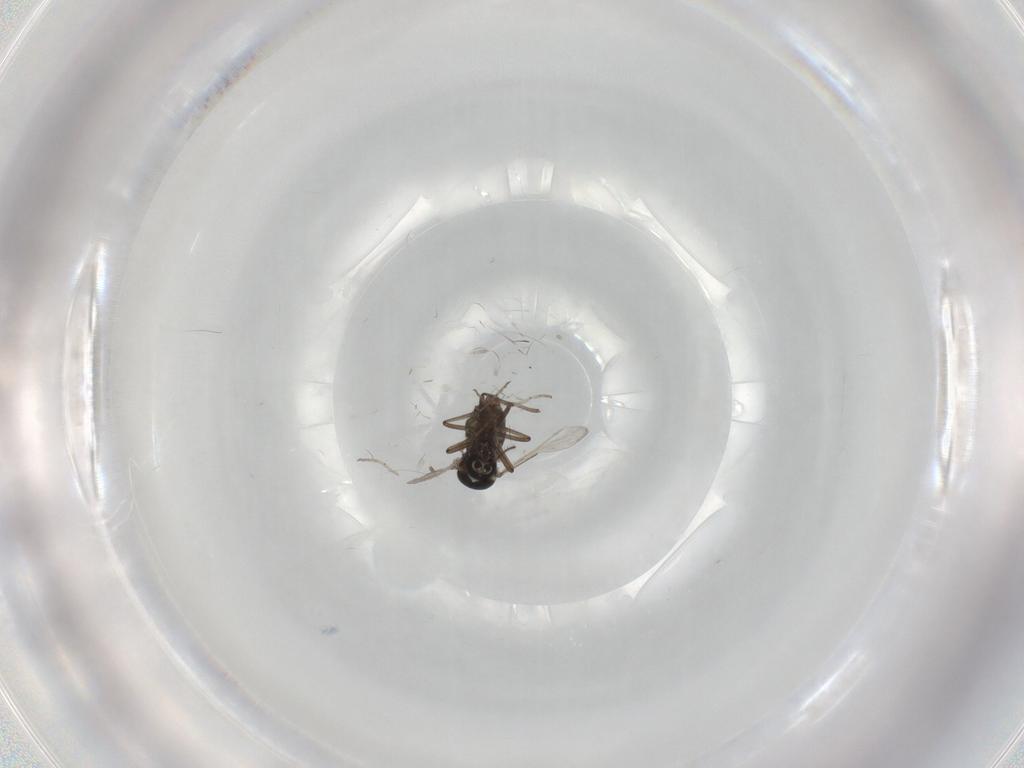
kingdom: Animalia
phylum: Arthropoda
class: Insecta
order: Diptera
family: Ceratopogonidae
